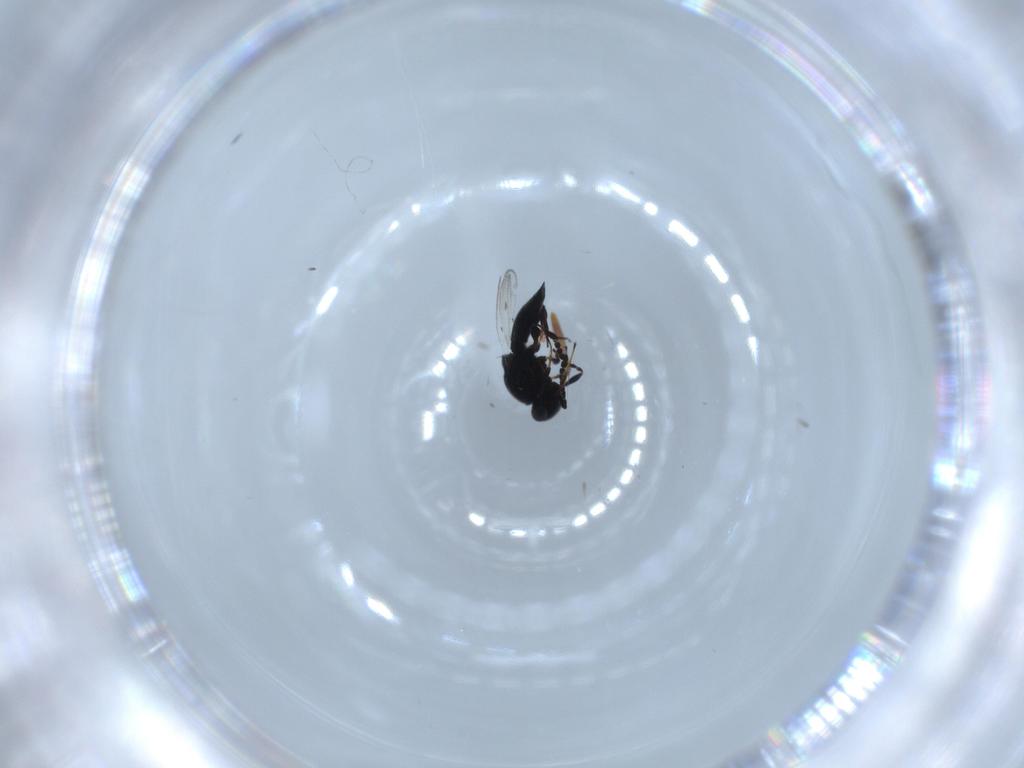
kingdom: Animalia
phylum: Arthropoda
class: Insecta
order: Hymenoptera
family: Platygastridae
